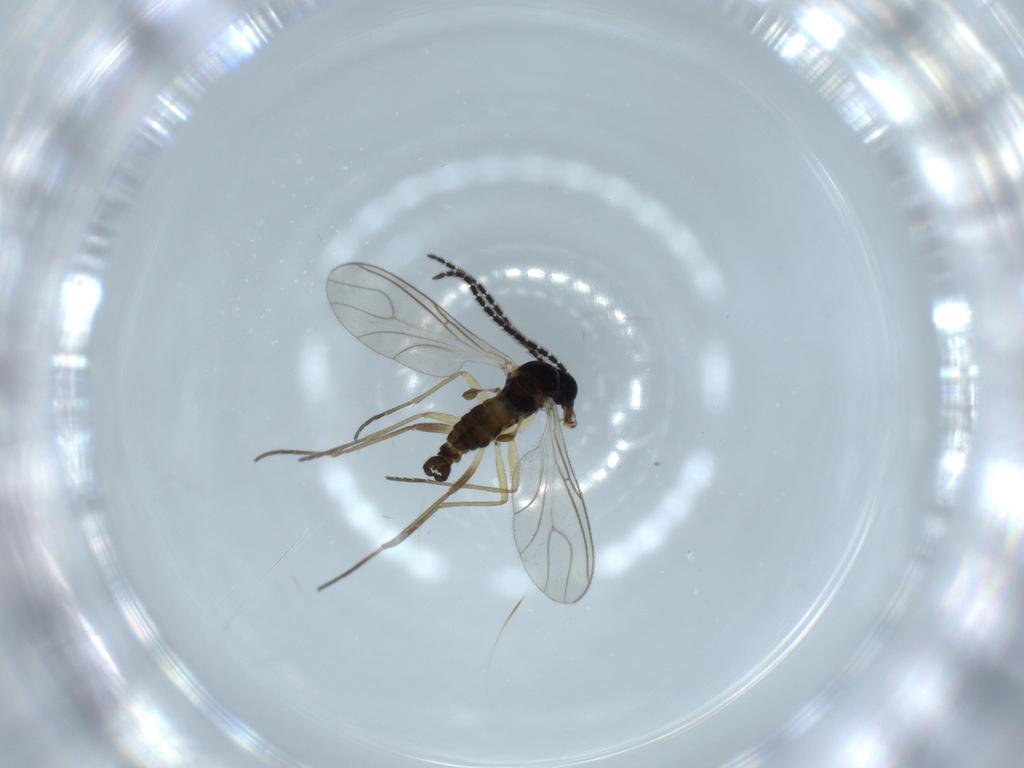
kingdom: Animalia
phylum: Arthropoda
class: Insecta
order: Diptera
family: Sciaridae
